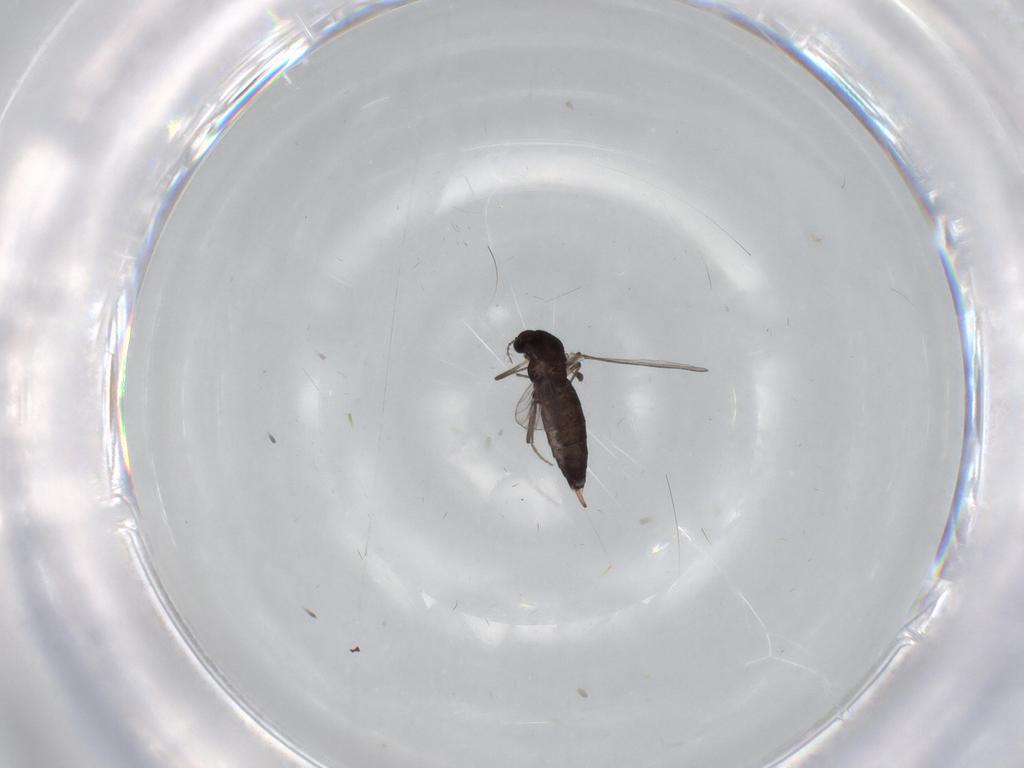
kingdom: Animalia
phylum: Arthropoda
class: Insecta
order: Diptera
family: Chironomidae
